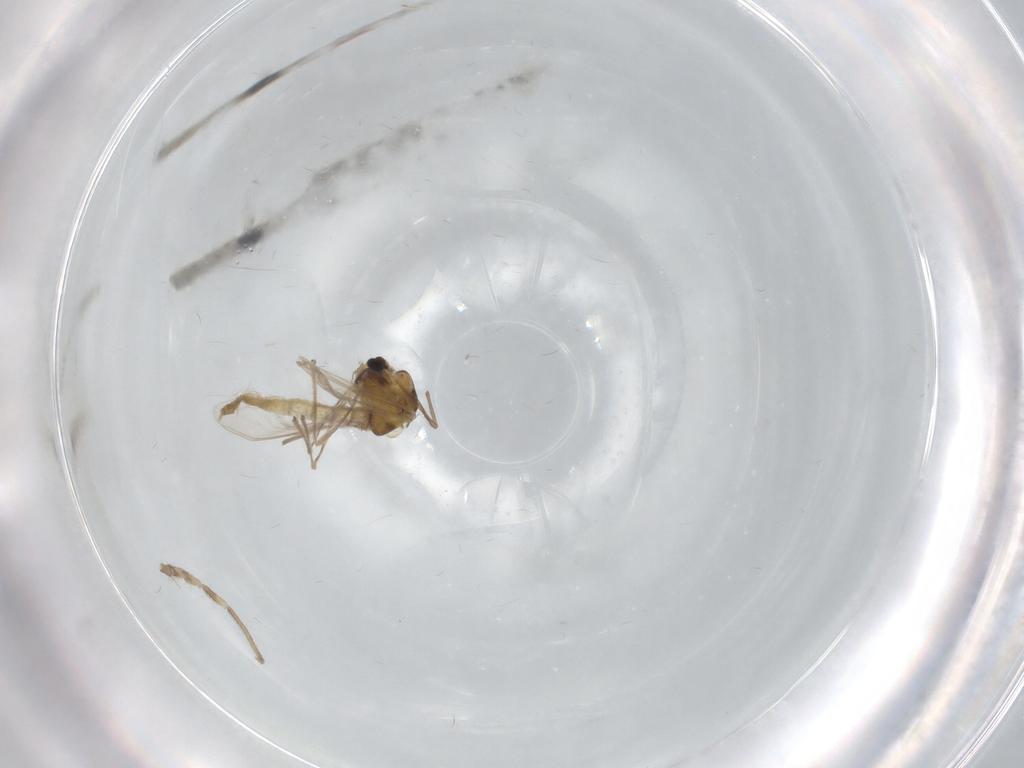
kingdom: Animalia
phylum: Arthropoda
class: Insecta
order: Diptera
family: Chironomidae
